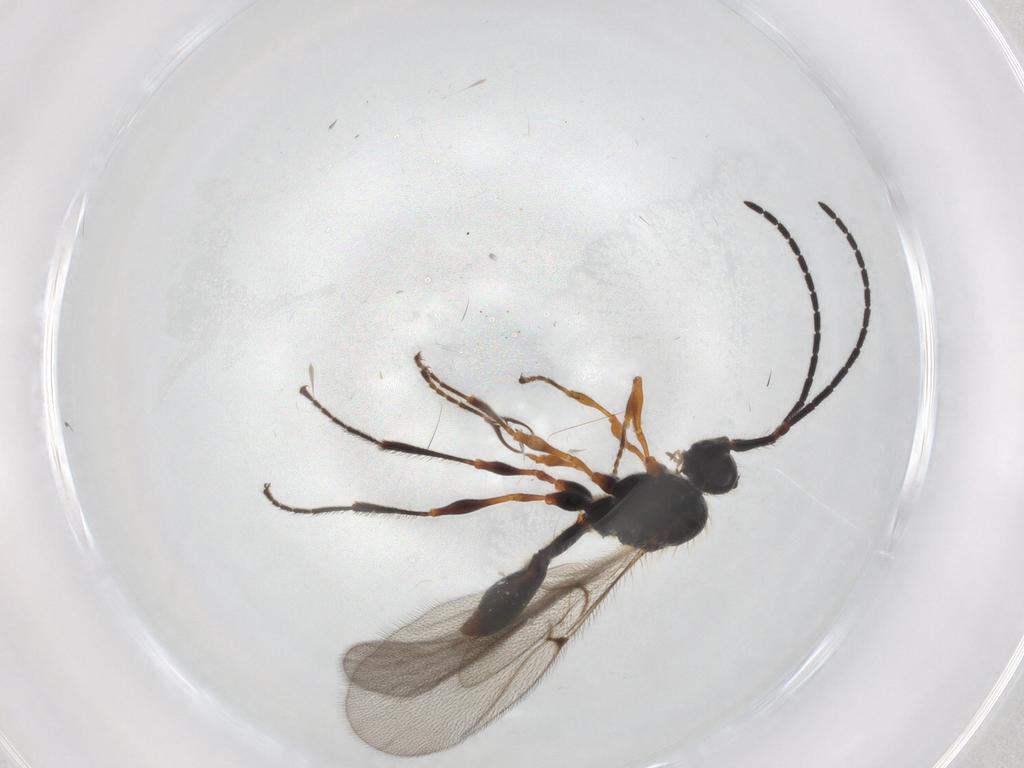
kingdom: Animalia
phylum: Arthropoda
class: Insecta
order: Hymenoptera
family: Diapriidae
